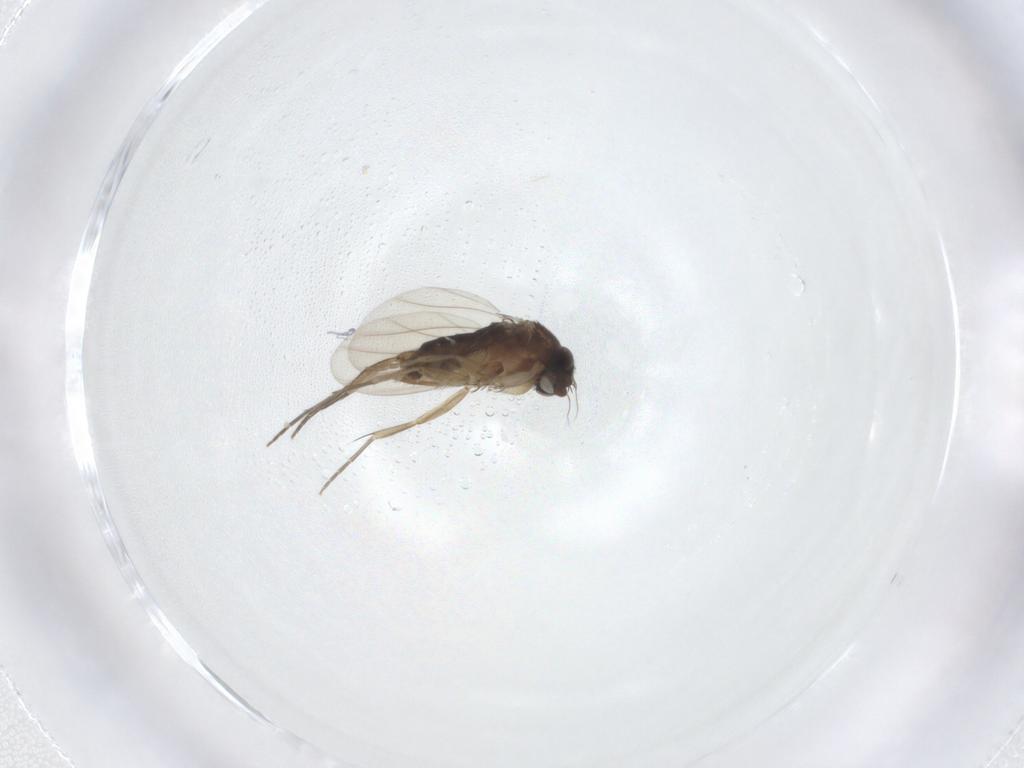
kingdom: Animalia
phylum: Arthropoda
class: Insecta
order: Diptera
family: Phoridae
